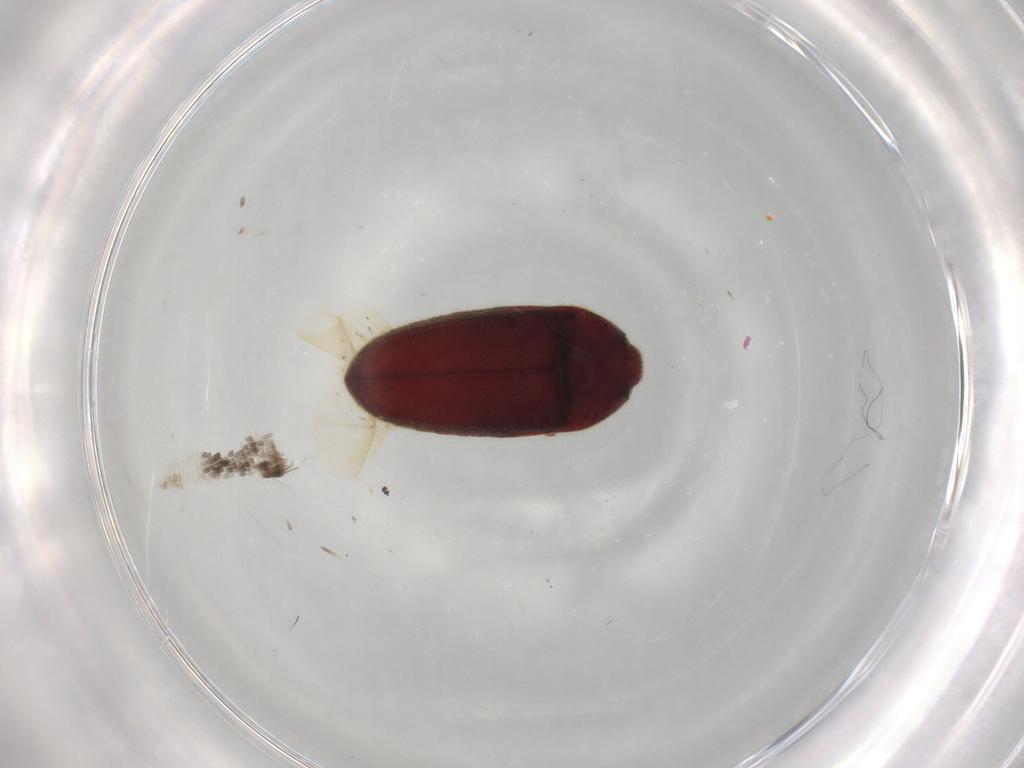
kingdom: Animalia
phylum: Arthropoda
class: Insecta
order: Coleoptera
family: Throscidae
